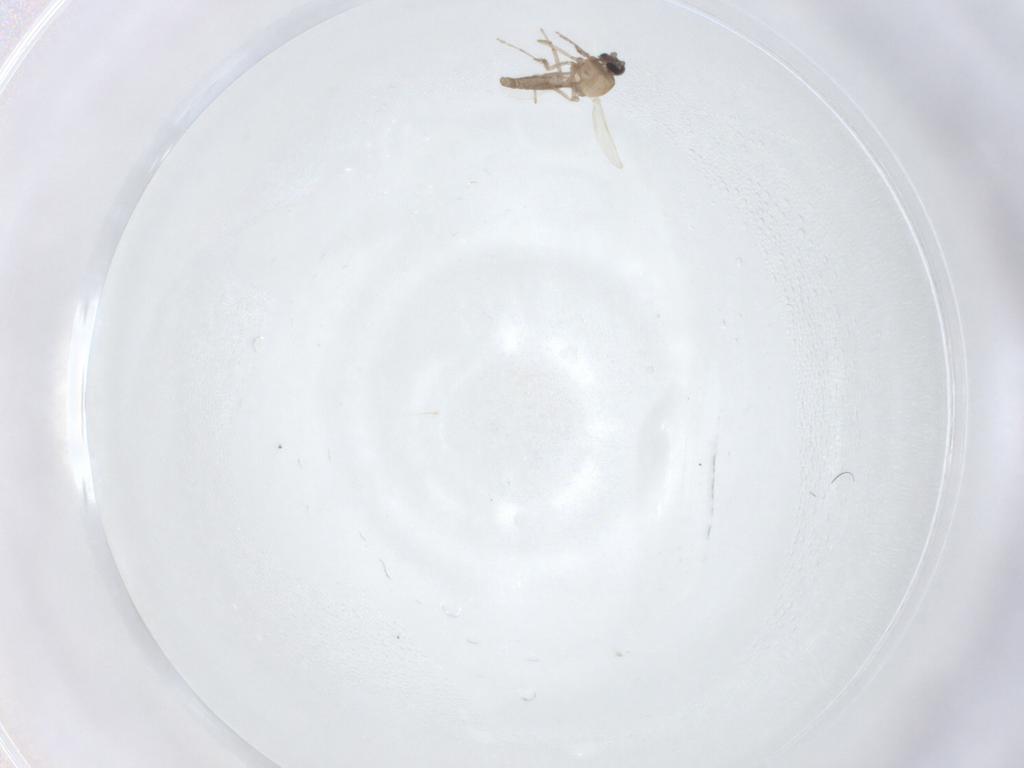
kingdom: Animalia
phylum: Arthropoda
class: Insecta
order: Diptera
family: Ceratopogonidae
